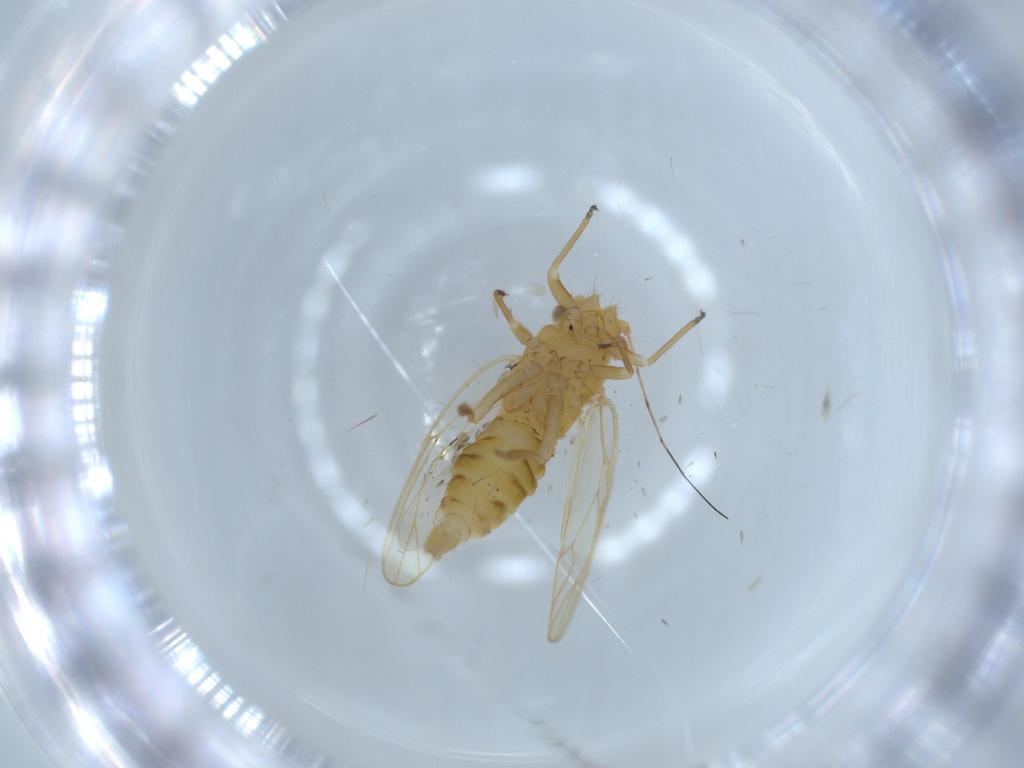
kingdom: Animalia
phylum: Arthropoda
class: Insecta
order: Hemiptera
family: Psyllidae
